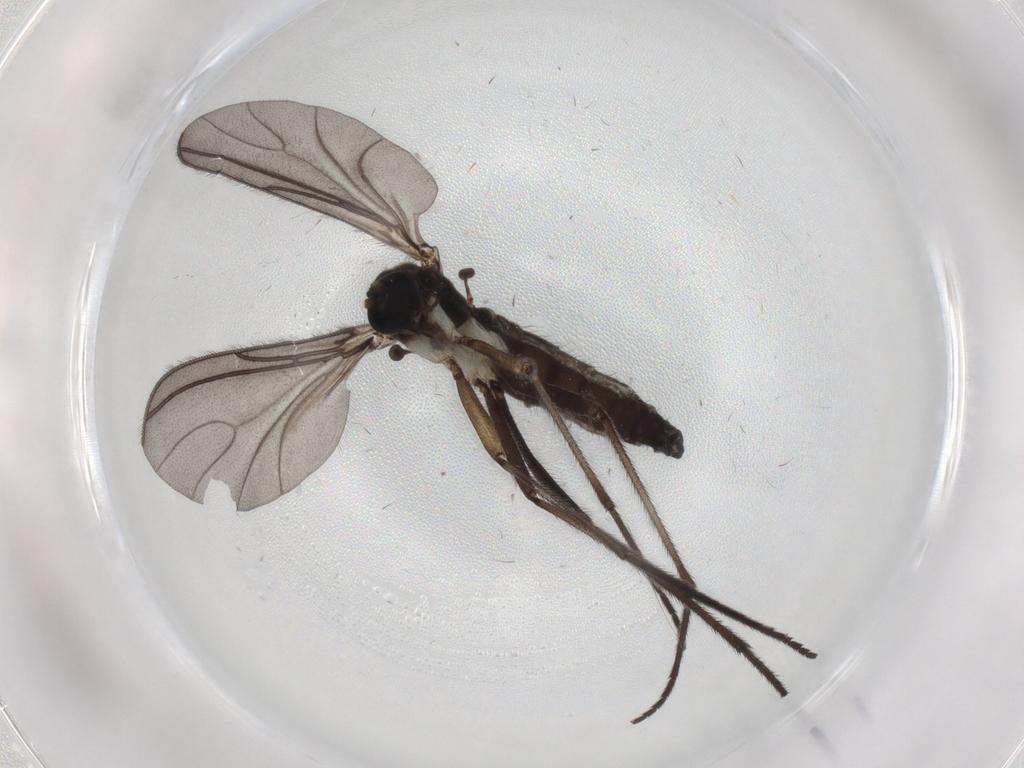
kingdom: Animalia
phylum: Arthropoda
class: Insecta
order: Diptera
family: Sciaridae
